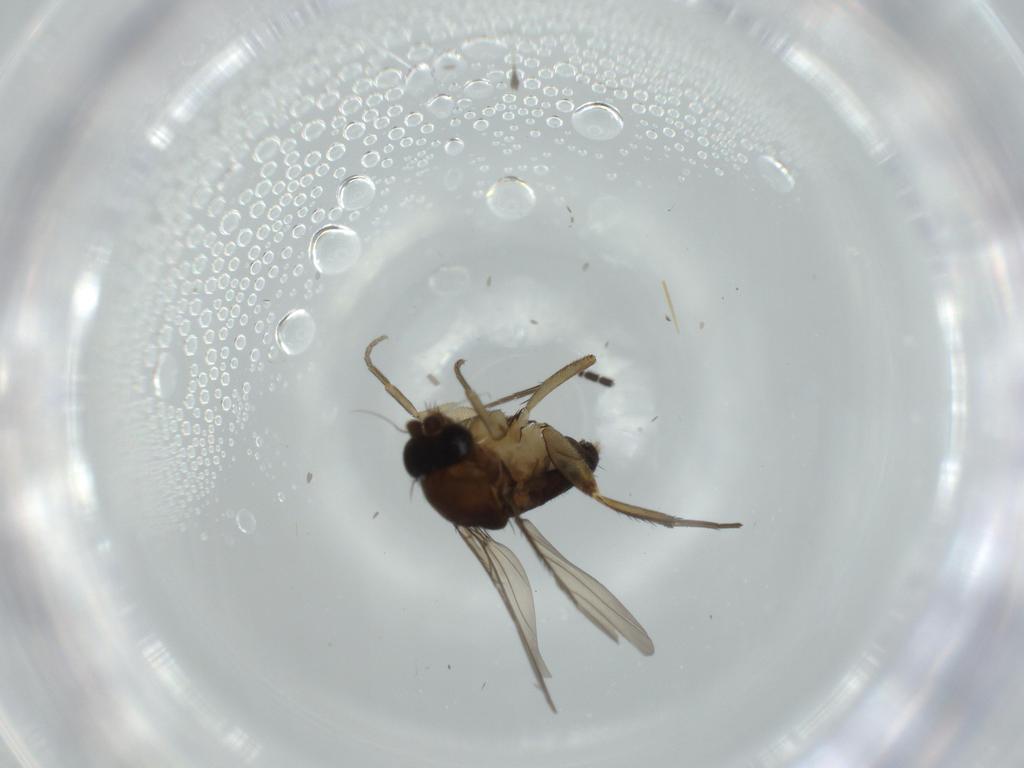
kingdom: Animalia
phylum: Arthropoda
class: Insecta
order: Diptera
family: Phoridae
